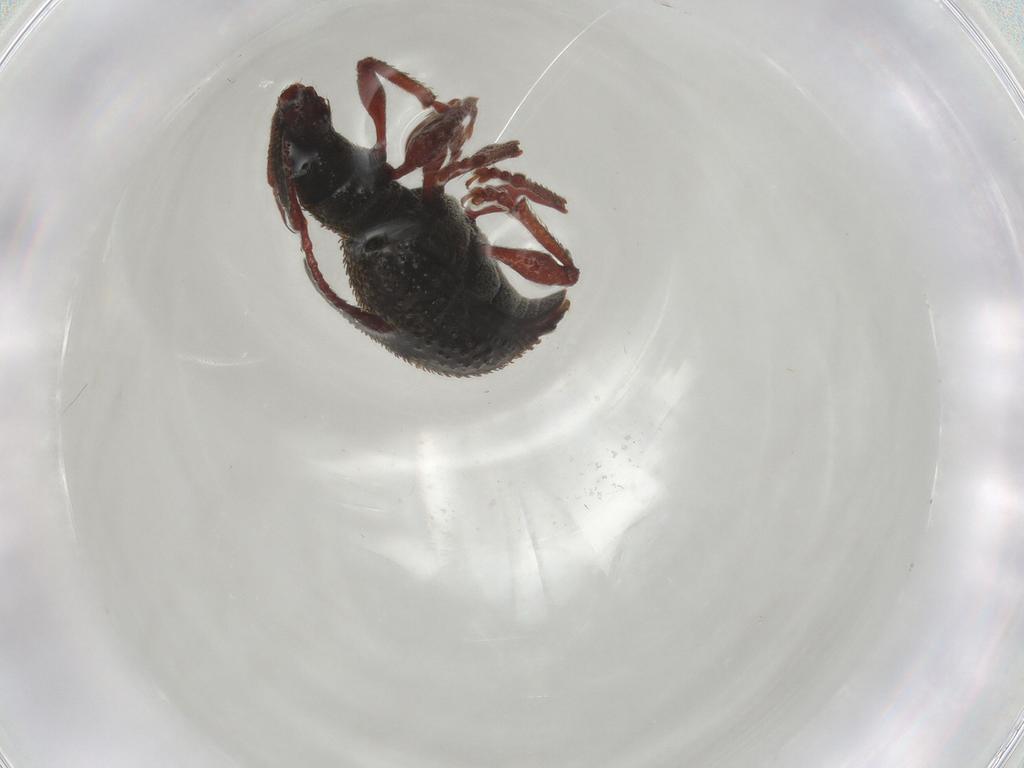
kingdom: Animalia
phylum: Arthropoda
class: Insecta
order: Coleoptera
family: Curculionidae
